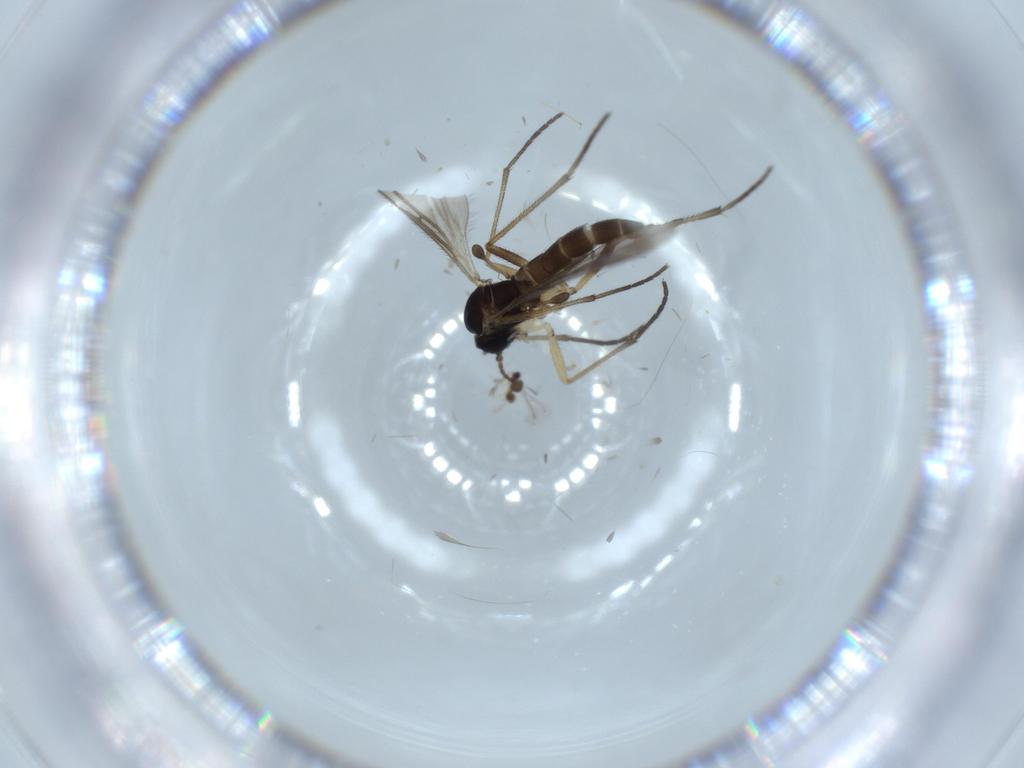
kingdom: Animalia
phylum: Arthropoda
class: Insecta
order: Diptera
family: Sciaridae
